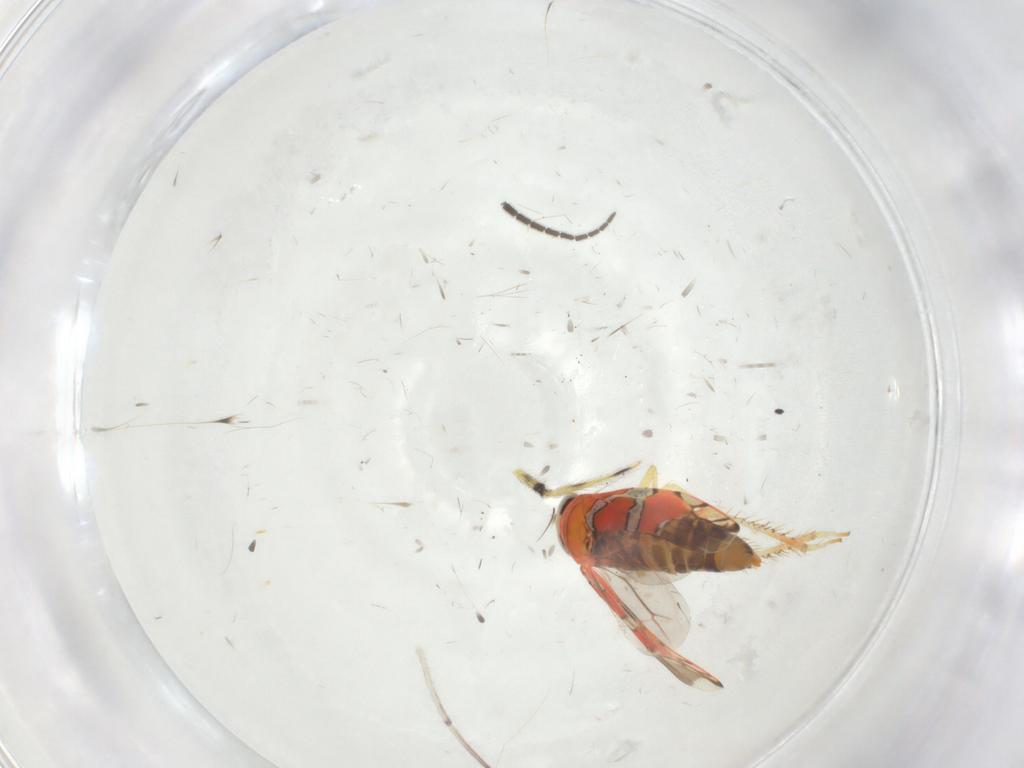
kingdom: Animalia
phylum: Arthropoda
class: Insecta
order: Hemiptera
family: Cicadellidae
